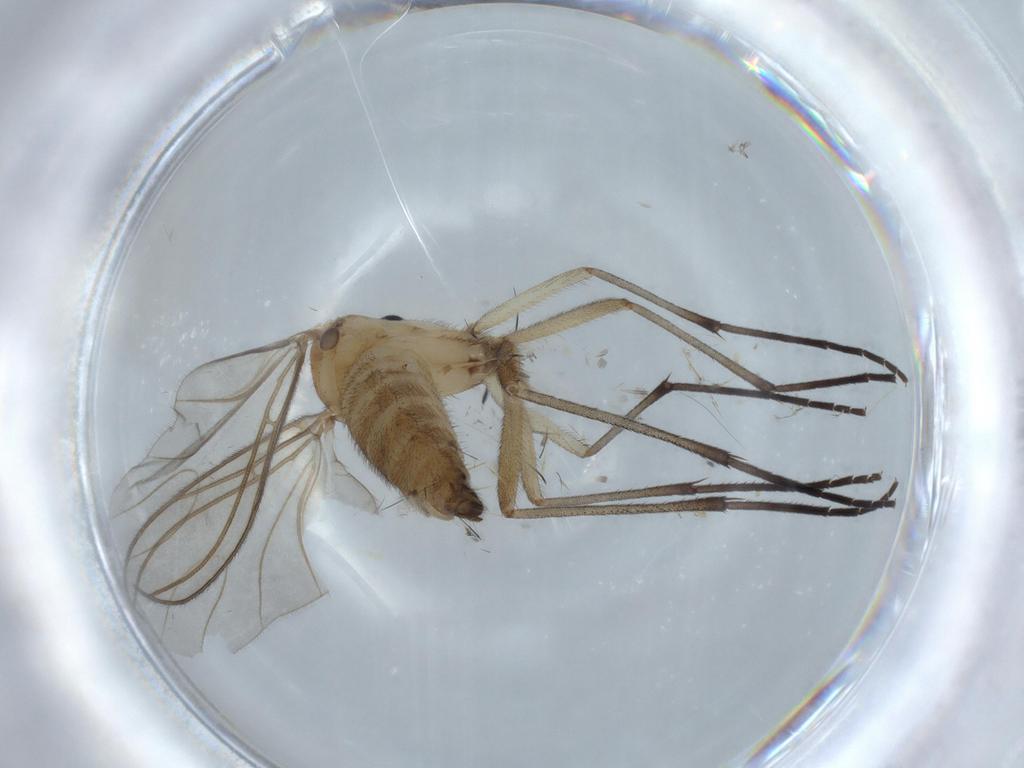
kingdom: Animalia
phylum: Arthropoda
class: Insecta
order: Diptera
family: Sciaridae
